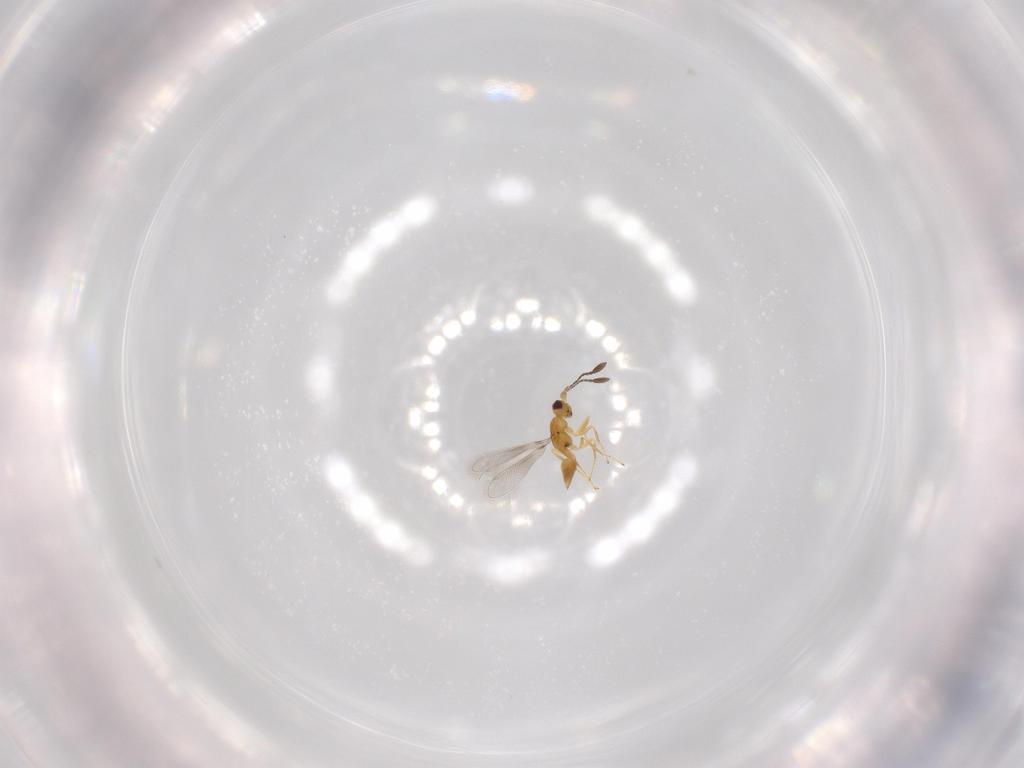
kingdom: Animalia
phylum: Arthropoda
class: Insecta
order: Hymenoptera
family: Mymaridae
